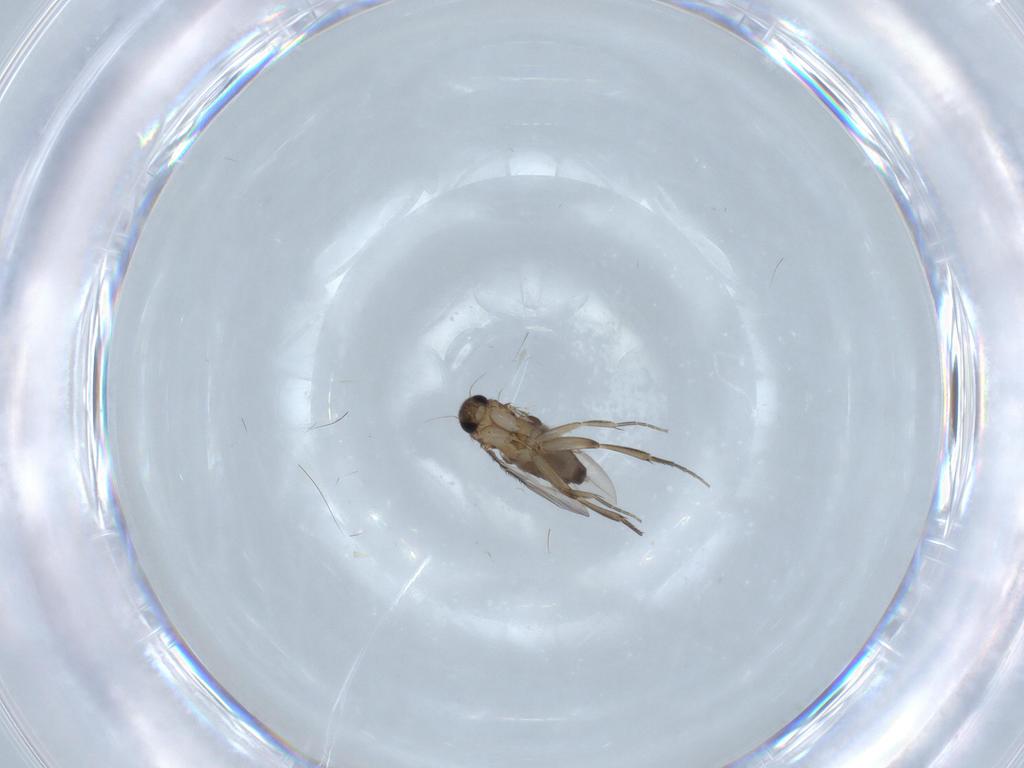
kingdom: Animalia
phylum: Arthropoda
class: Insecta
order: Diptera
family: Phoridae
